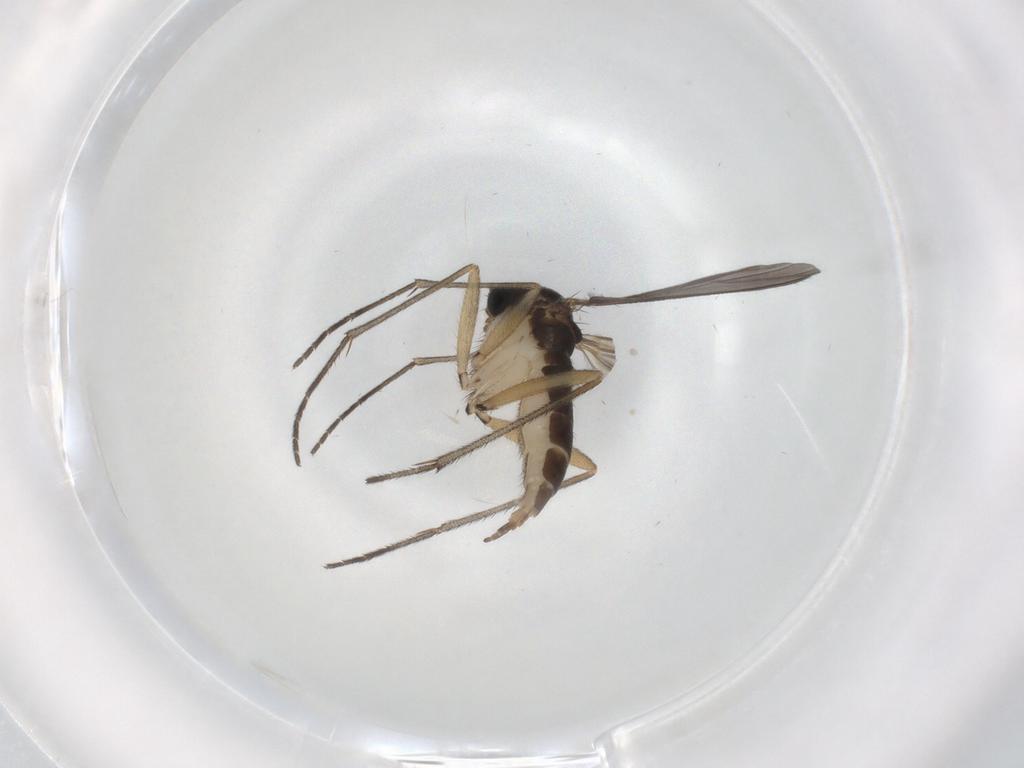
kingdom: Animalia
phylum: Arthropoda
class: Insecta
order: Diptera
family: Sciaridae
